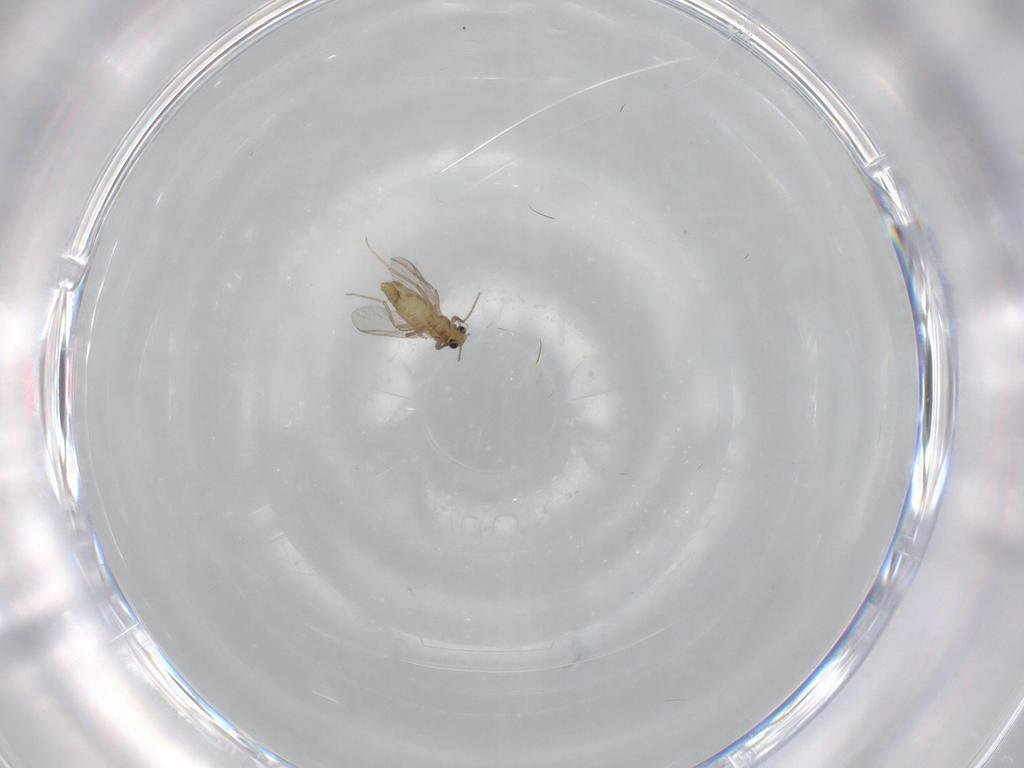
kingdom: Animalia
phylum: Arthropoda
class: Insecta
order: Diptera
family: Chironomidae
